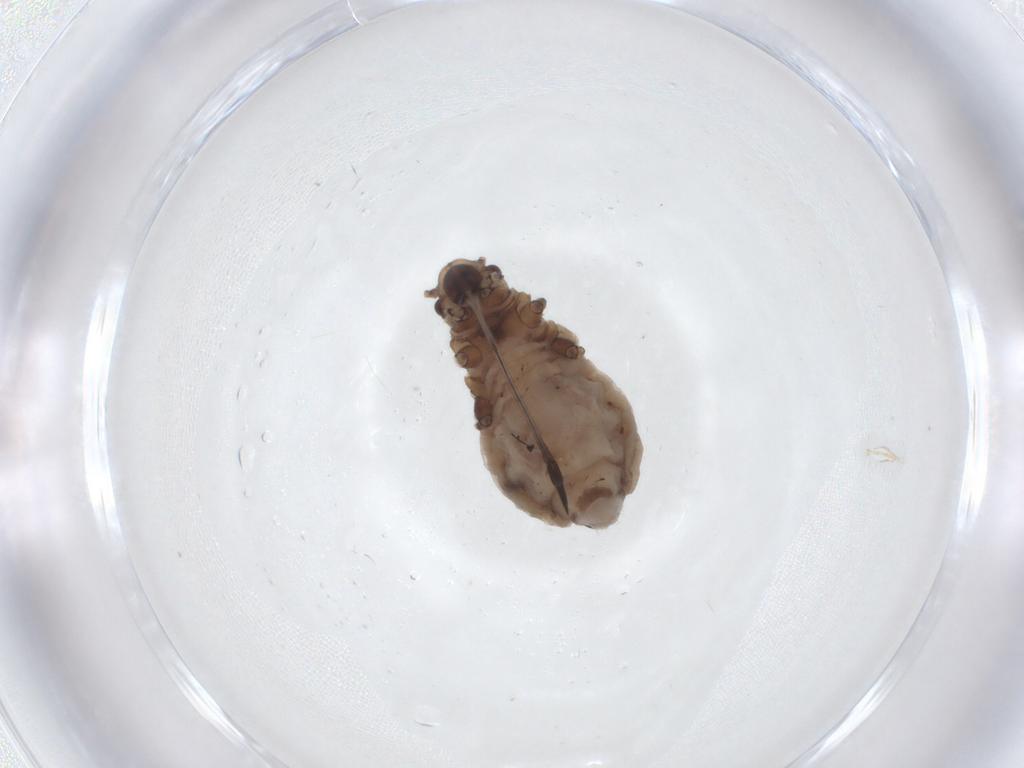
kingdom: Animalia
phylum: Arthropoda
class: Insecta
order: Hemiptera
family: Aphididae
